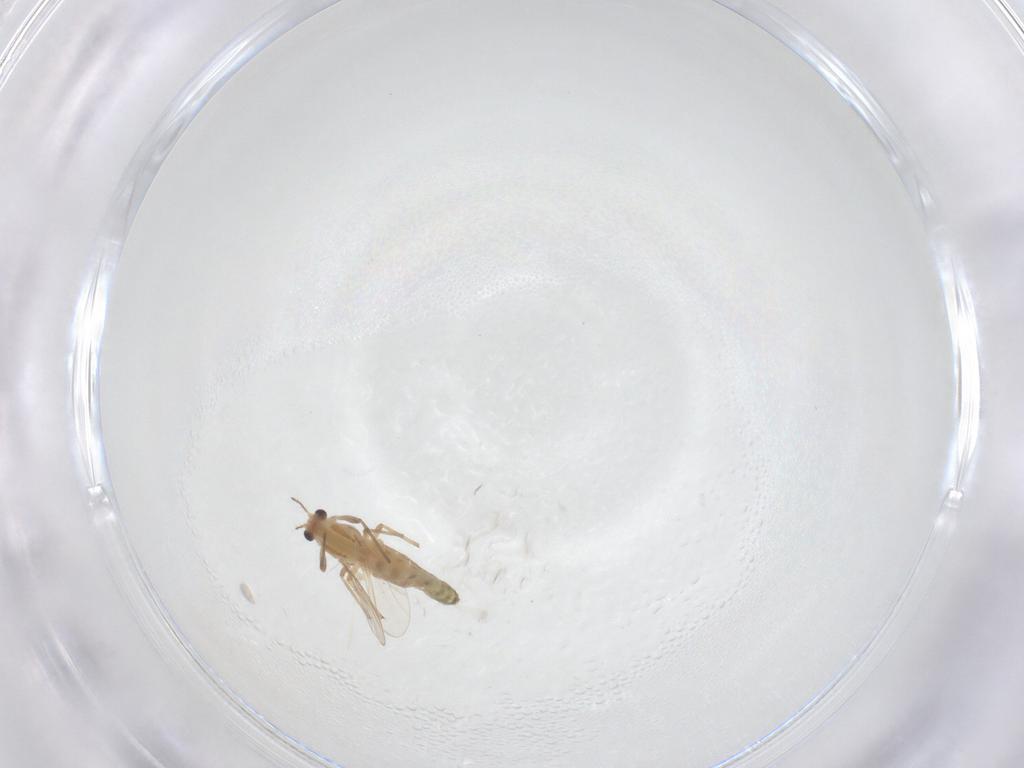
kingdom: Animalia
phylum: Arthropoda
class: Insecta
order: Diptera
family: Chironomidae
